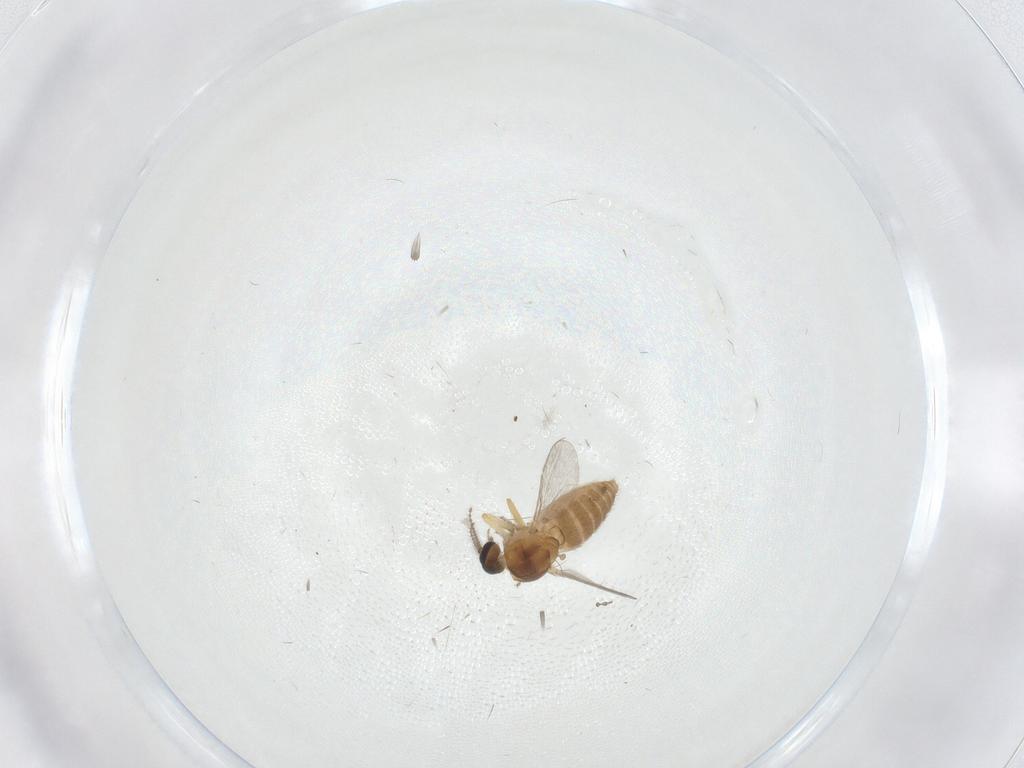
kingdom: Animalia
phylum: Arthropoda
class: Insecta
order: Diptera
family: Ceratopogonidae
